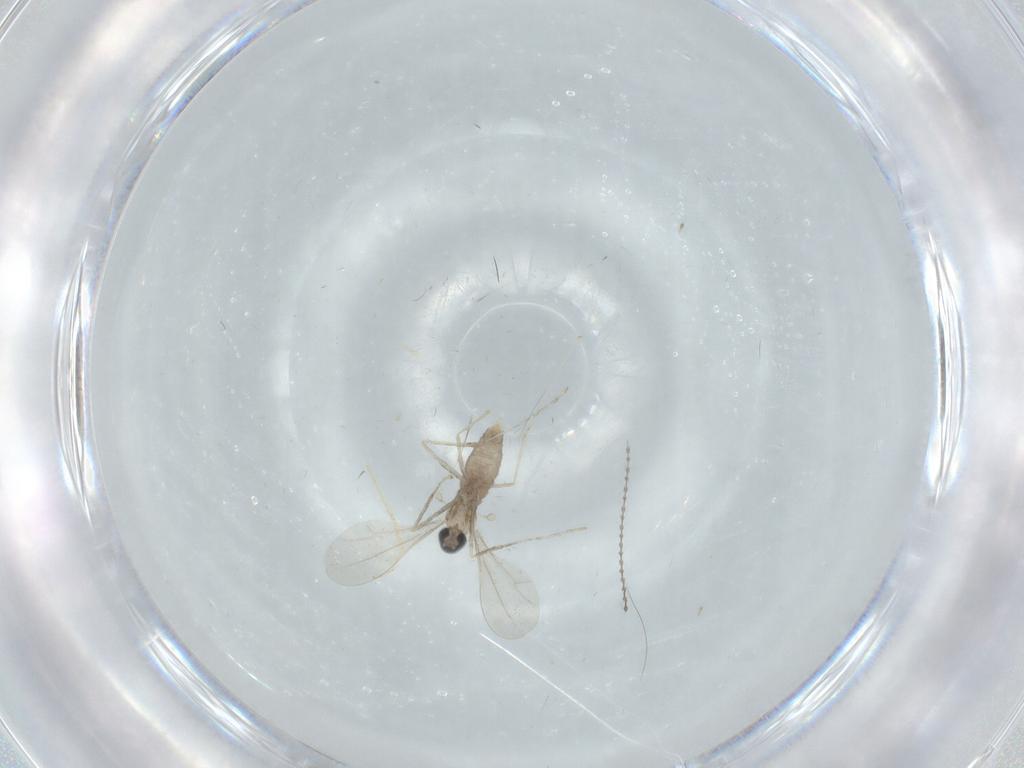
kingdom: Animalia
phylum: Arthropoda
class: Insecta
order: Diptera
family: Cecidomyiidae
